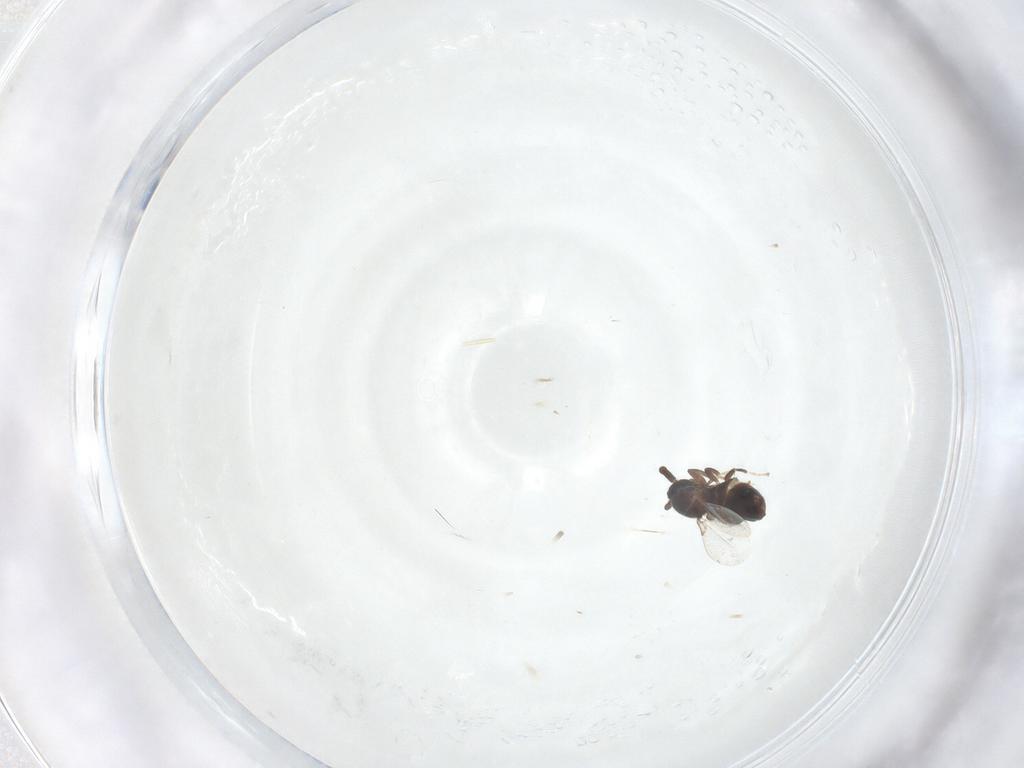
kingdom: Animalia
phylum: Arthropoda
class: Insecta
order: Diptera
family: Scatopsidae
